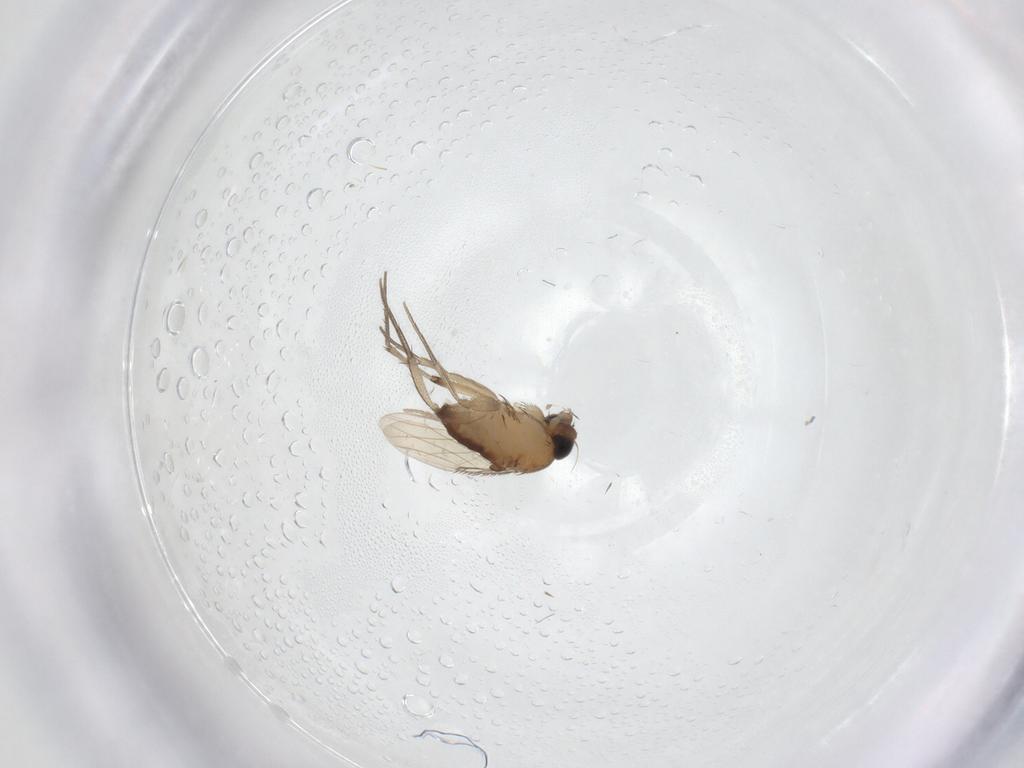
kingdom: Animalia
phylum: Arthropoda
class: Insecta
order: Diptera
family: Phoridae
